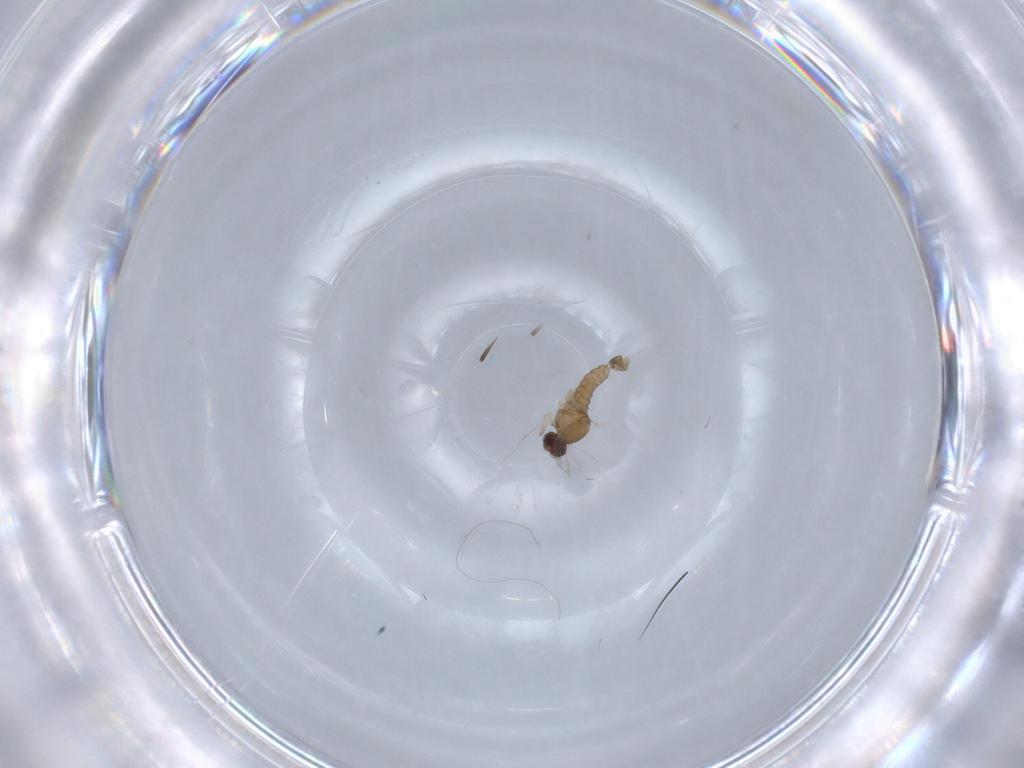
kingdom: Animalia
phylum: Arthropoda
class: Insecta
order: Diptera
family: Cecidomyiidae
